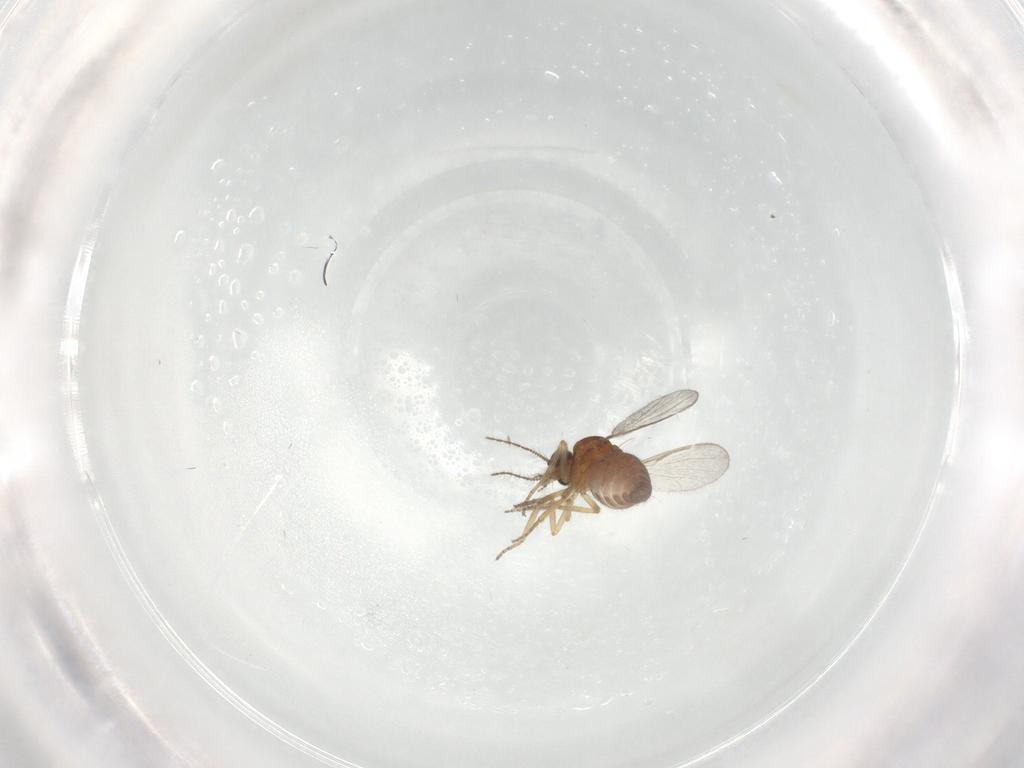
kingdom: Animalia
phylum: Arthropoda
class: Insecta
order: Diptera
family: Ceratopogonidae
